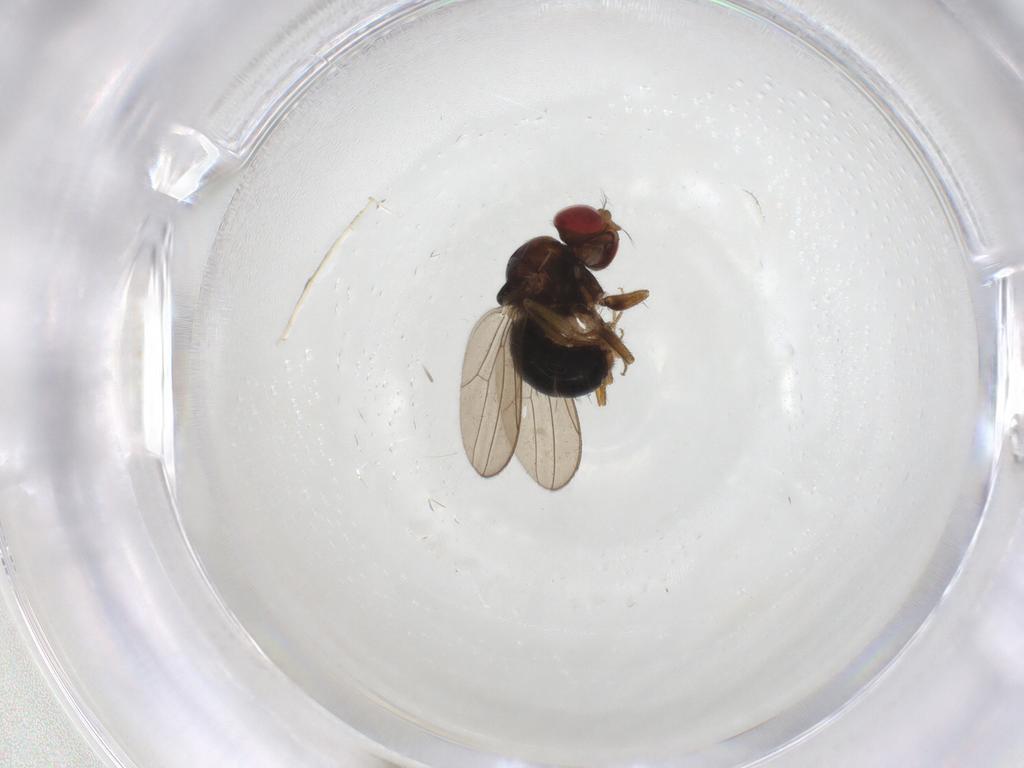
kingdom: Animalia
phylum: Arthropoda
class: Insecta
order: Diptera
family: Drosophilidae
